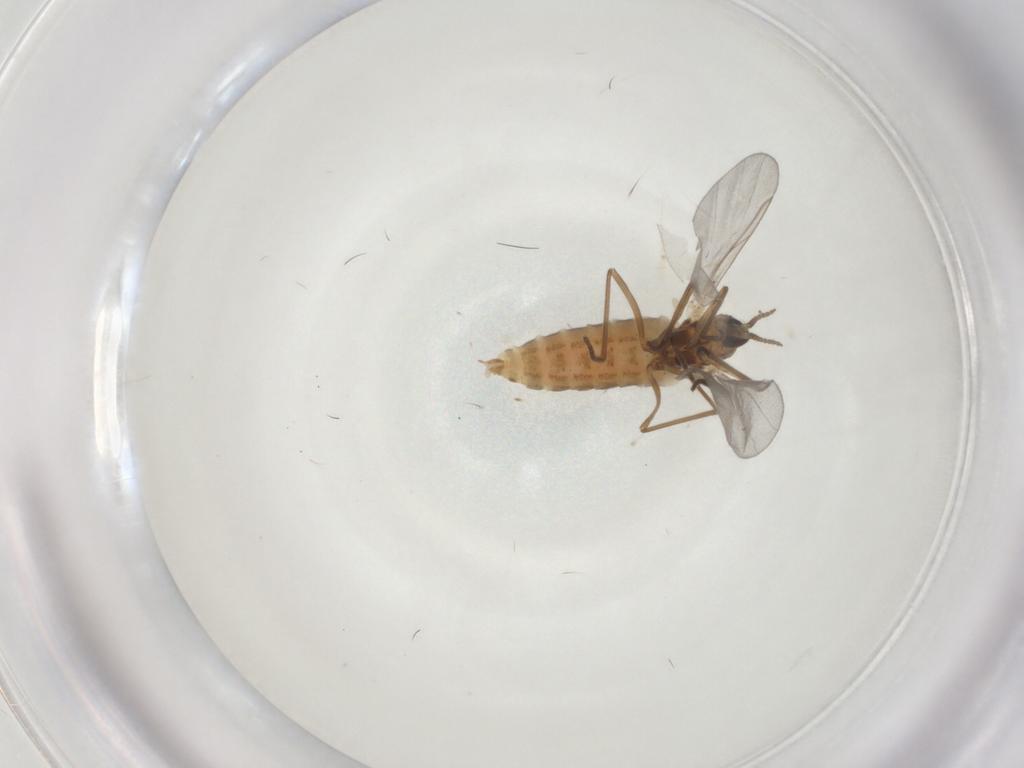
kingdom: Animalia
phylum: Arthropoda
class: Insecta
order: Diptera
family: Cecidomyiidae
